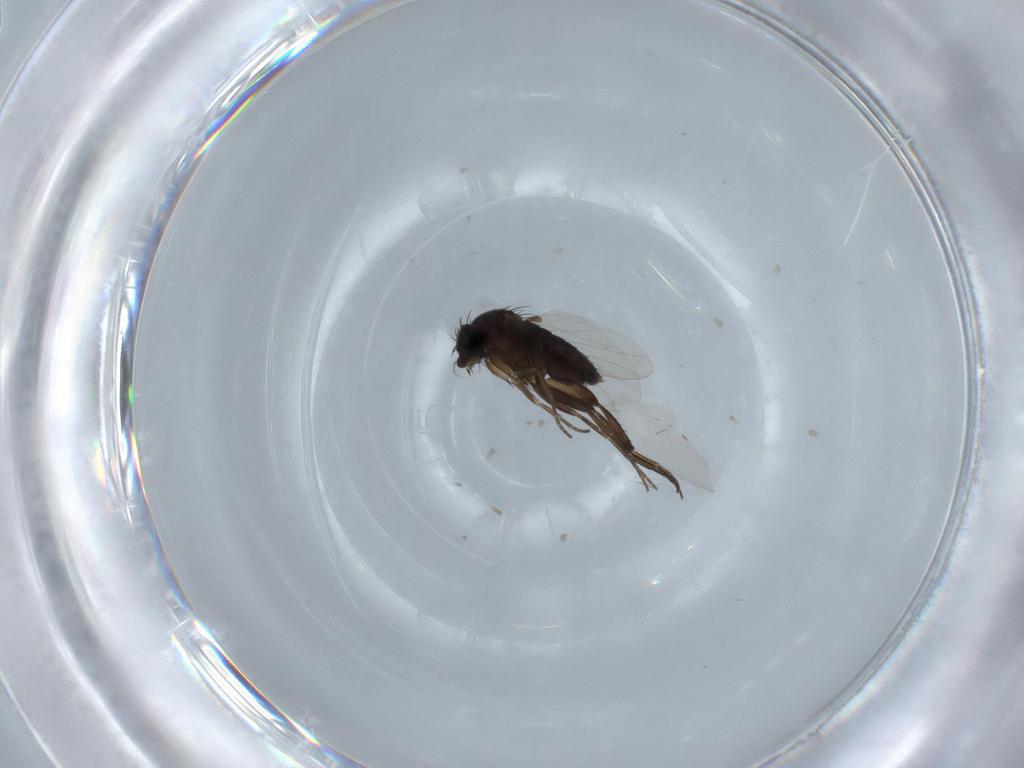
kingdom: Animalia
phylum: Arthropoda
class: Insecta
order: Diptera
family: Phoridae
